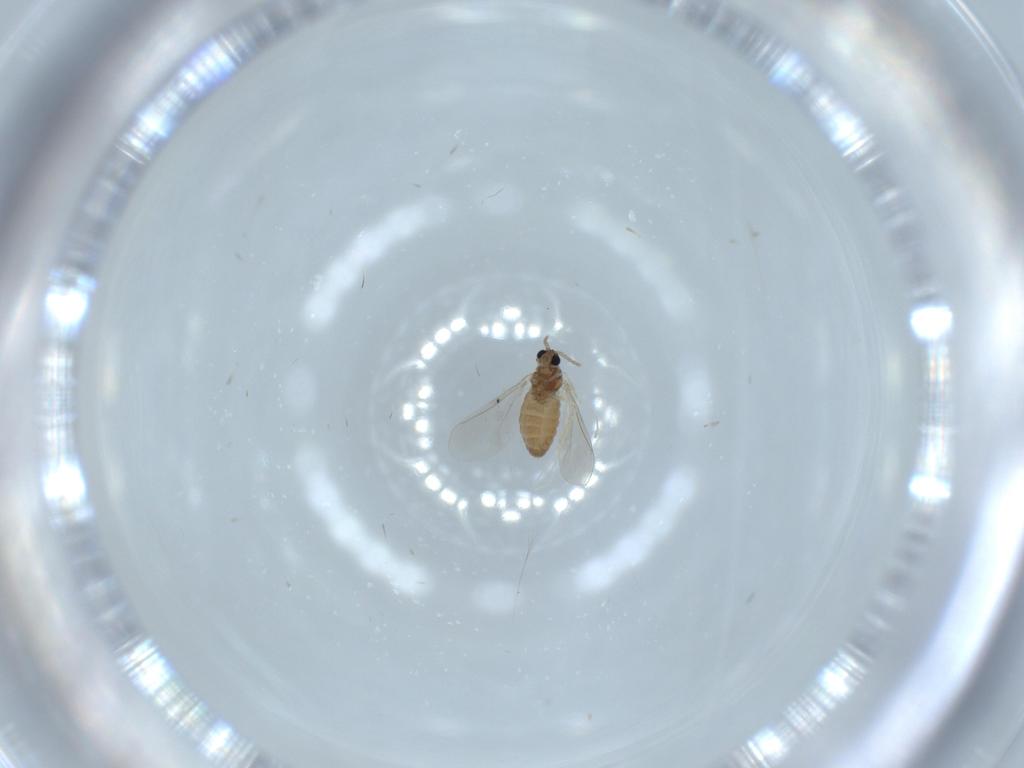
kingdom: Animalia
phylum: Arthropoda
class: Insecta
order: Diptera
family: Cecidomyiidae
